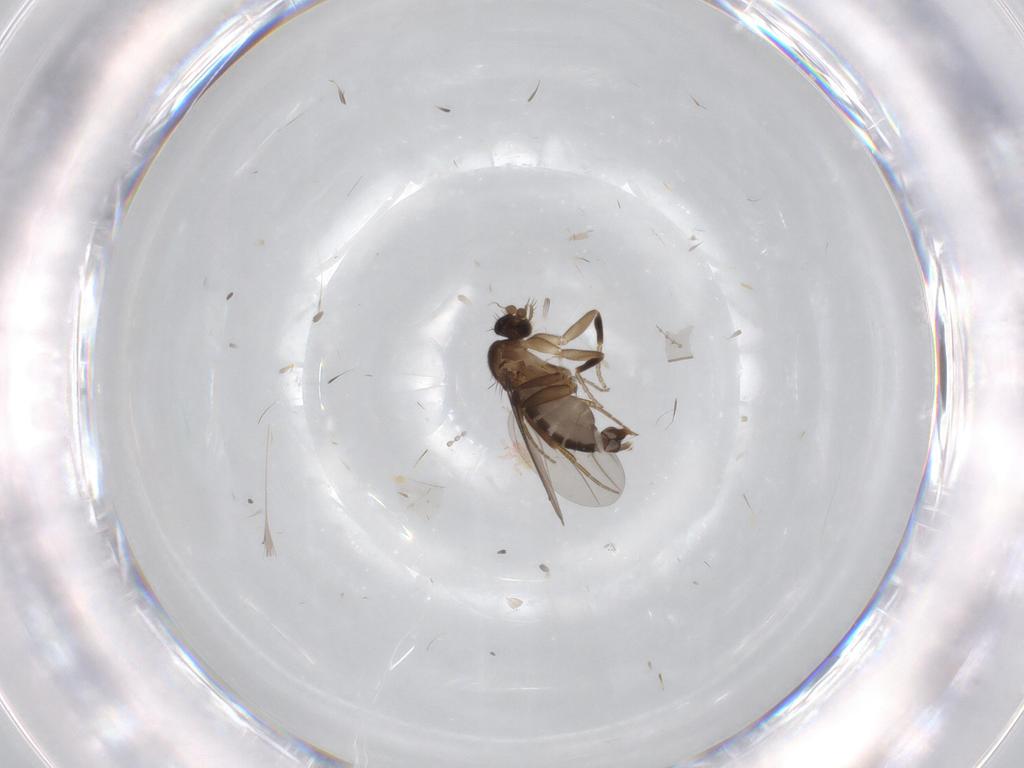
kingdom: Animalia
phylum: Arthropoda
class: Insecta
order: Diptera
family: Cecidomyiidae
